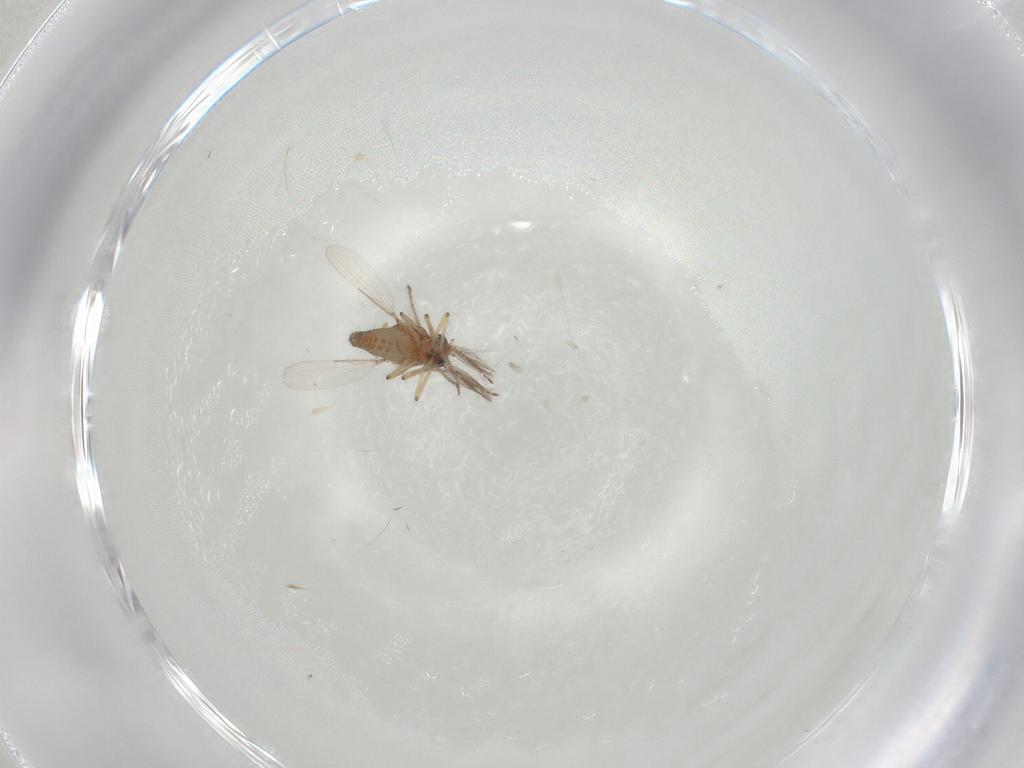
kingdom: Animalia
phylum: Arthropoda
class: Insecta
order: Diptera
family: Ceratopogonidae
